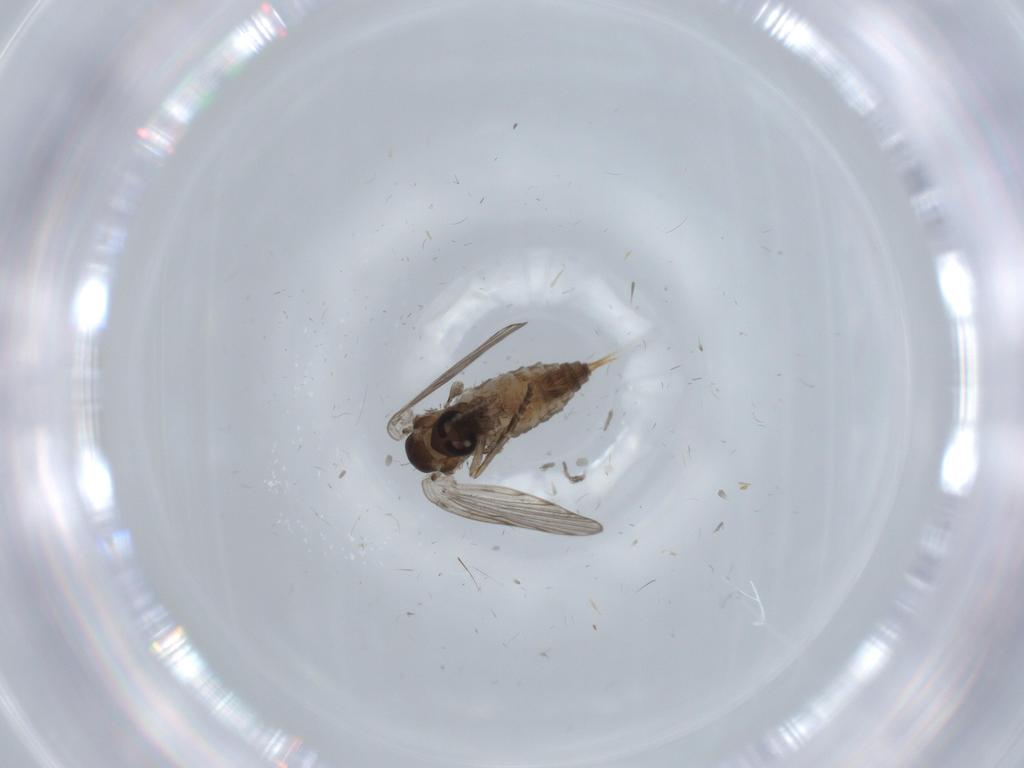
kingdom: Animalia
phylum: Arthropoda
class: Insecta
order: Diptera
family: Psychodidae
